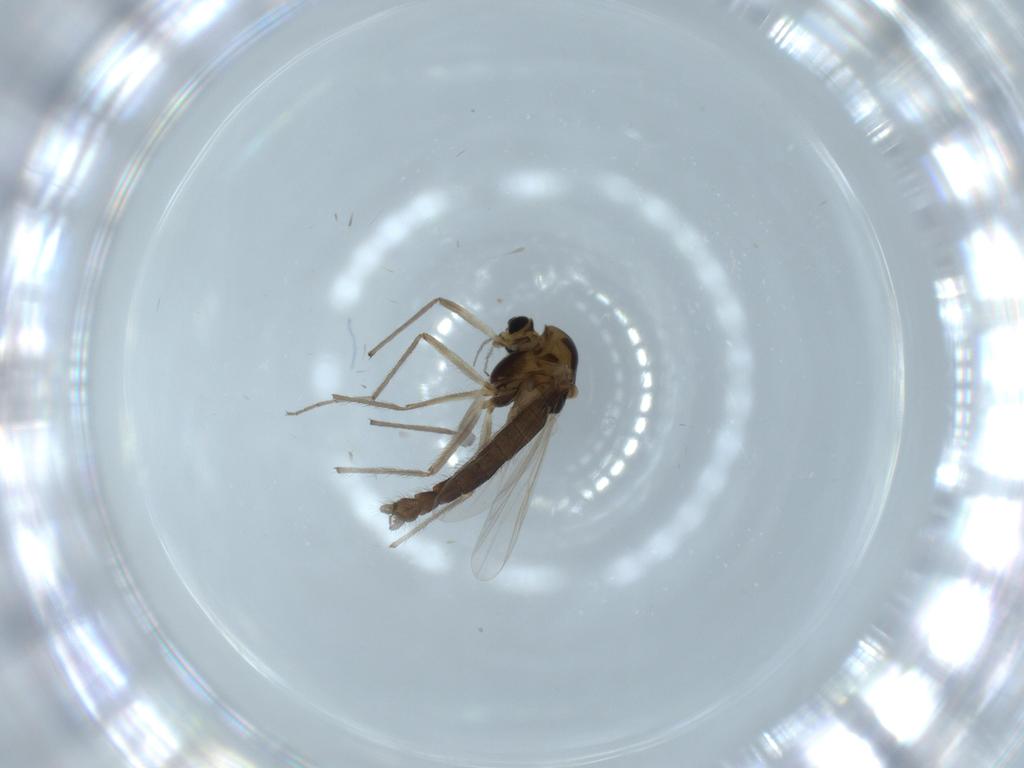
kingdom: Animalia
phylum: Arthropoda
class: Insecta
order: Diptera
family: Chironomidae
